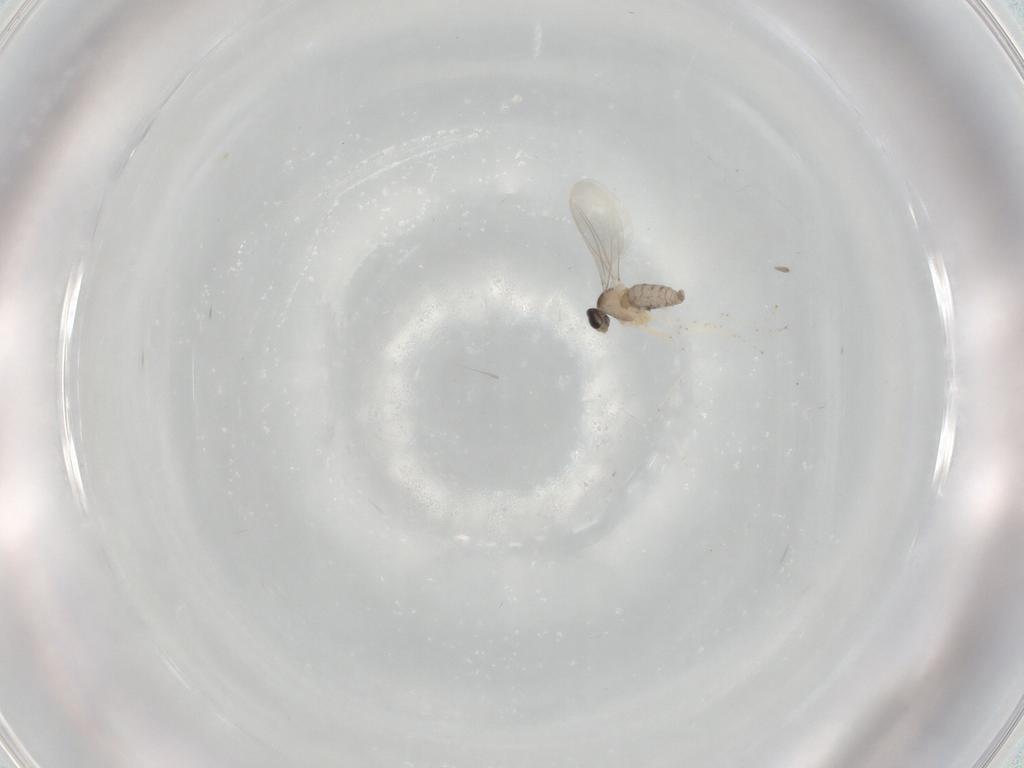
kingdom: Animalia
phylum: Arthropoda
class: Insecta
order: Diptera
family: Cecidomyiidae
